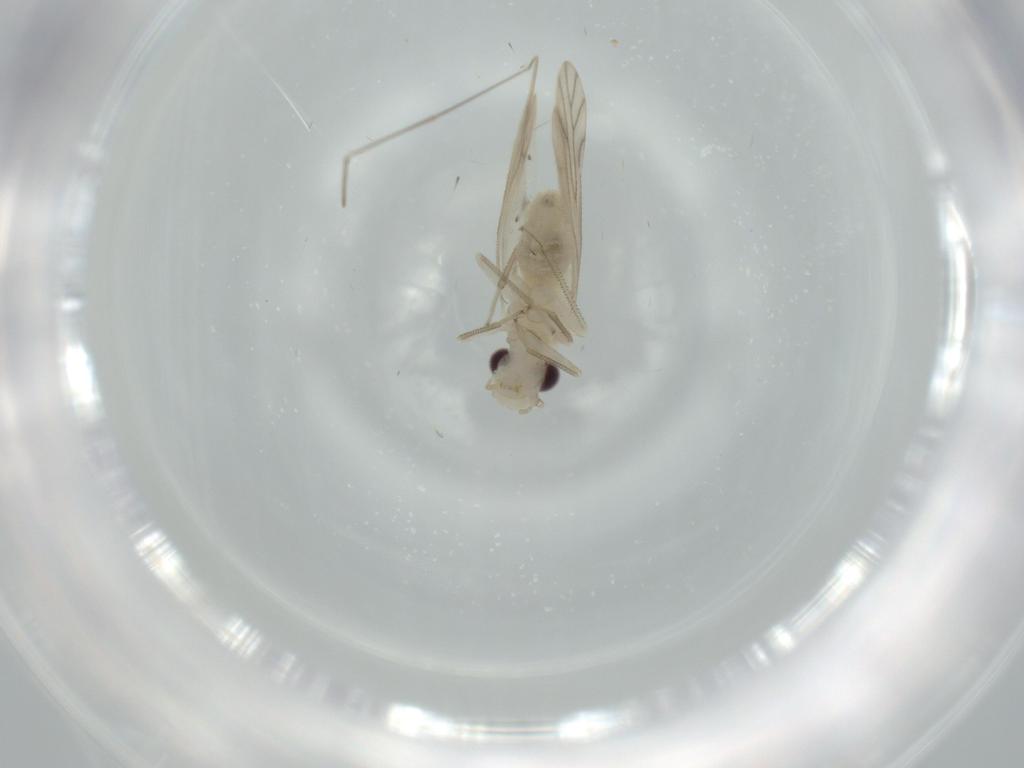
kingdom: Animalia
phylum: Arthropoda
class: Insecta
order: Psocodea
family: Caeciliusidae
